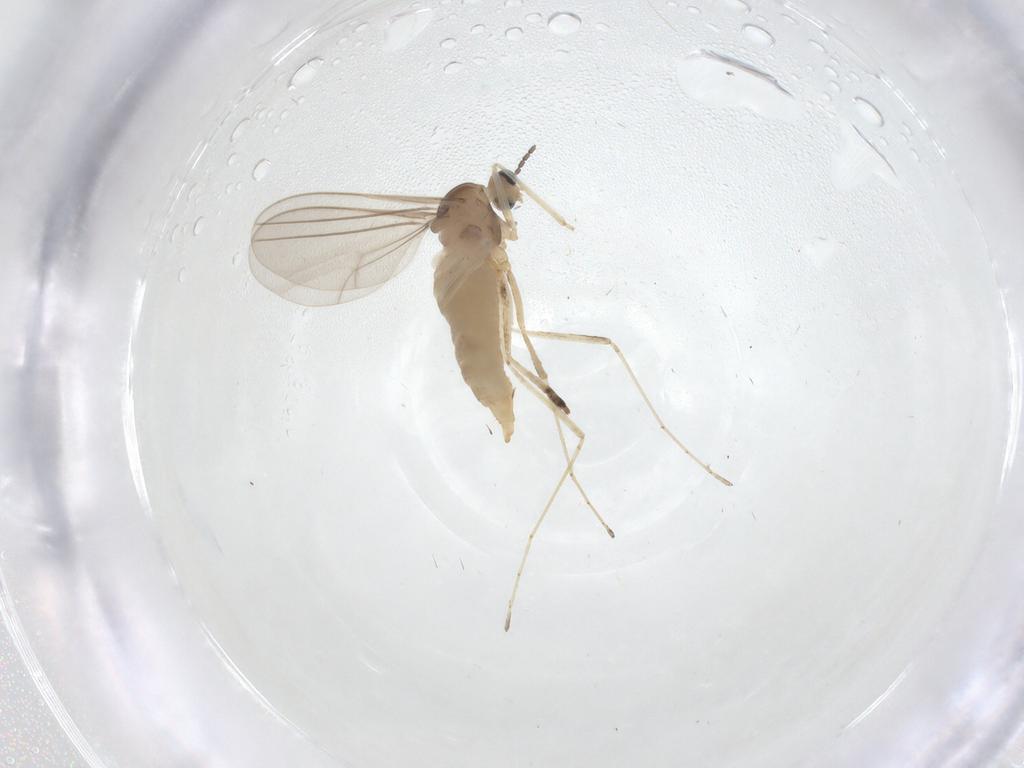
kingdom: Animalia
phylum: Arthropoda
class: Insecta
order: Diptera
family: Cecidomyiidae
